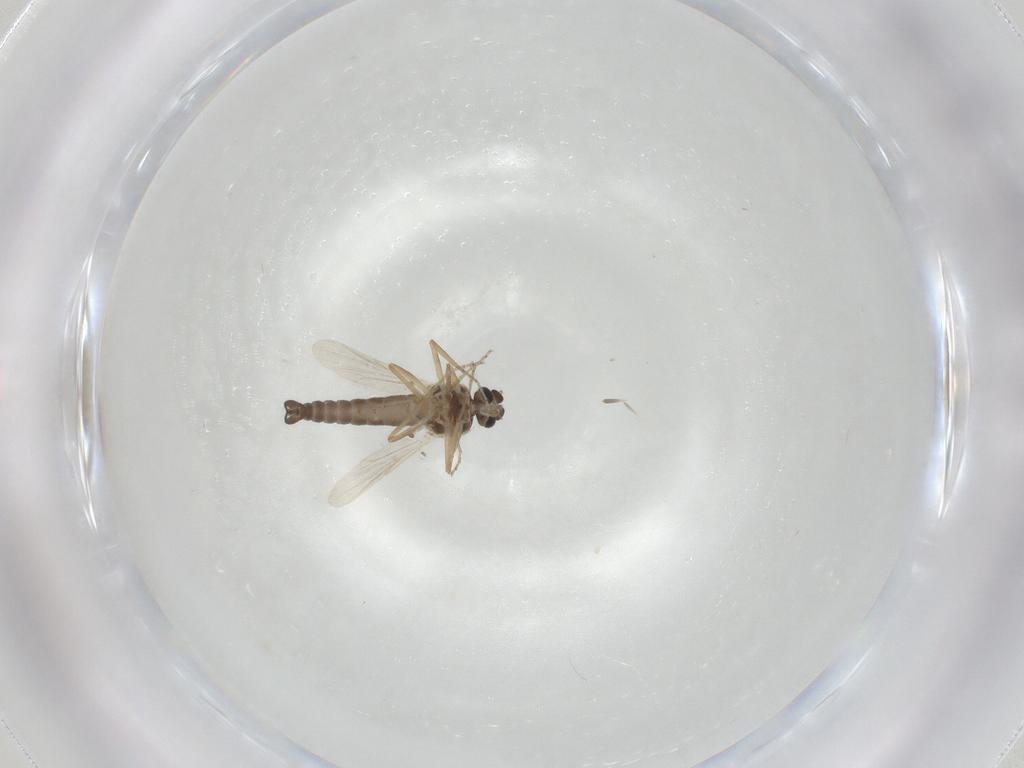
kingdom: Animalia
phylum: Arthropoda
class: Insecta
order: Diptera
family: Ceratopogonidae
